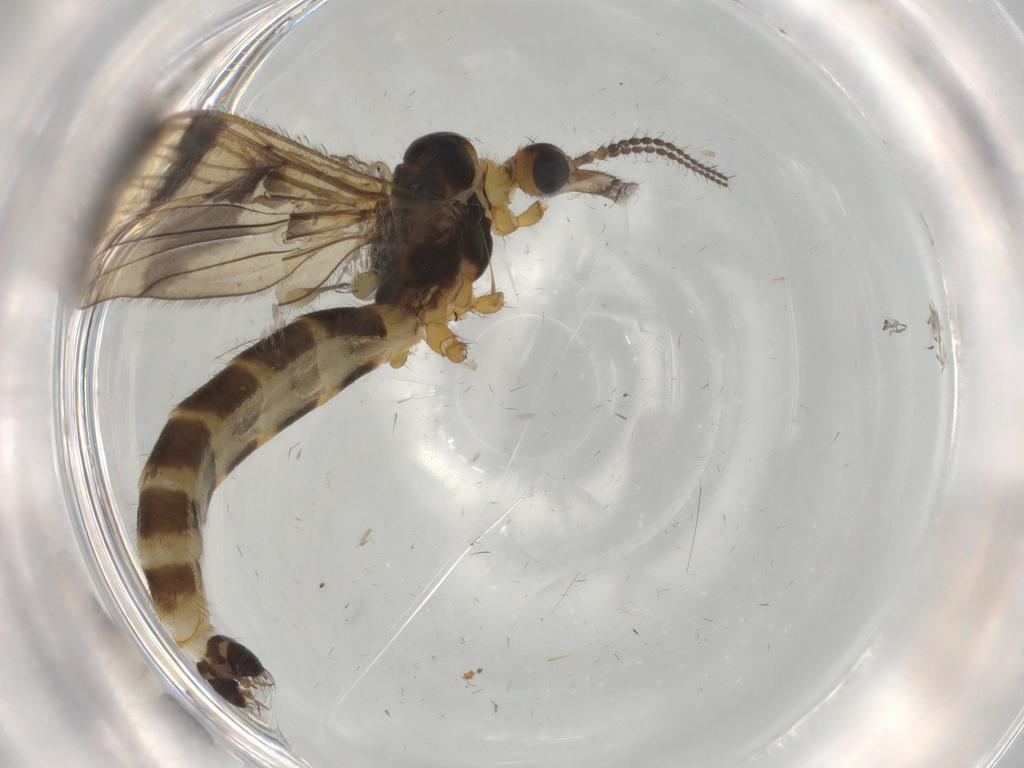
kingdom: Animalia
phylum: Arthropoda
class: Insecta
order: Diptera
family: Limoniidae
